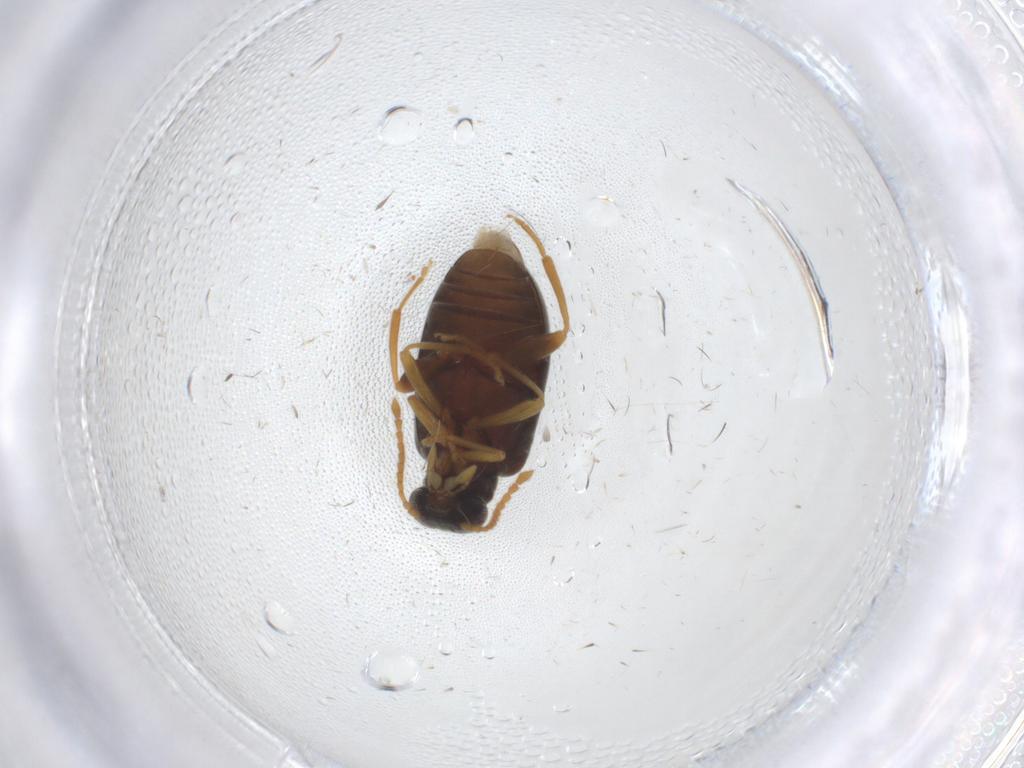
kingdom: Animalia
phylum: Arthropoda
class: Insecta
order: Coleoptera
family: Aderidae
